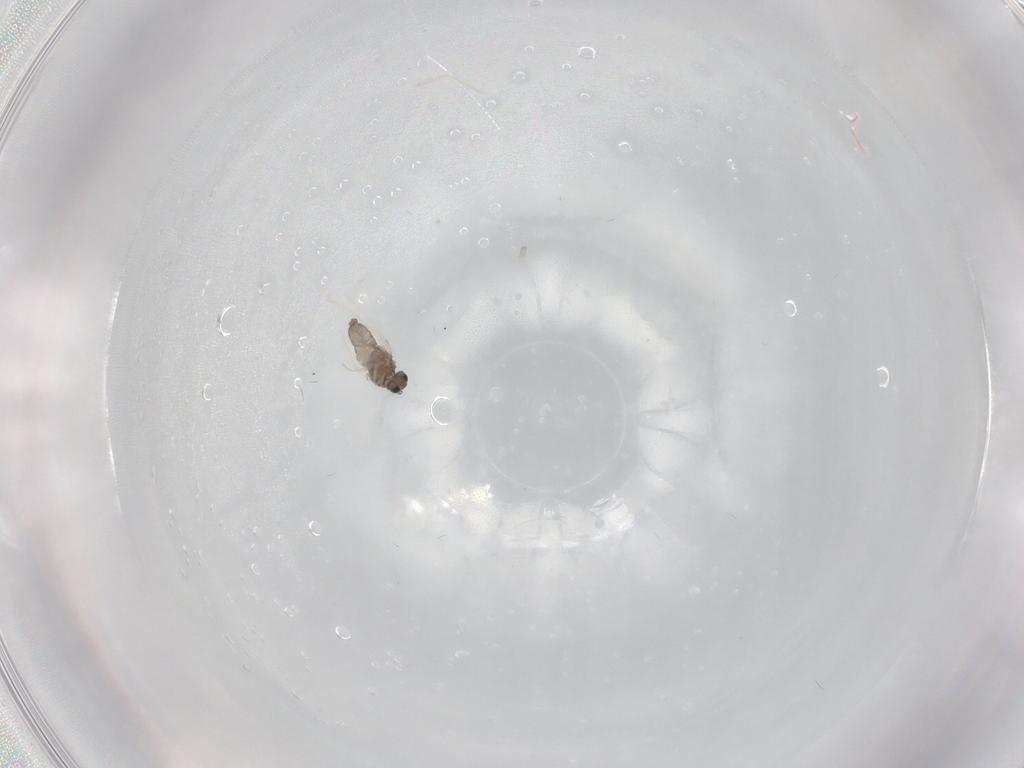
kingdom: Animalia
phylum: Arthropoda
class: Insecta
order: Diptera
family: Cecidomyiidae
